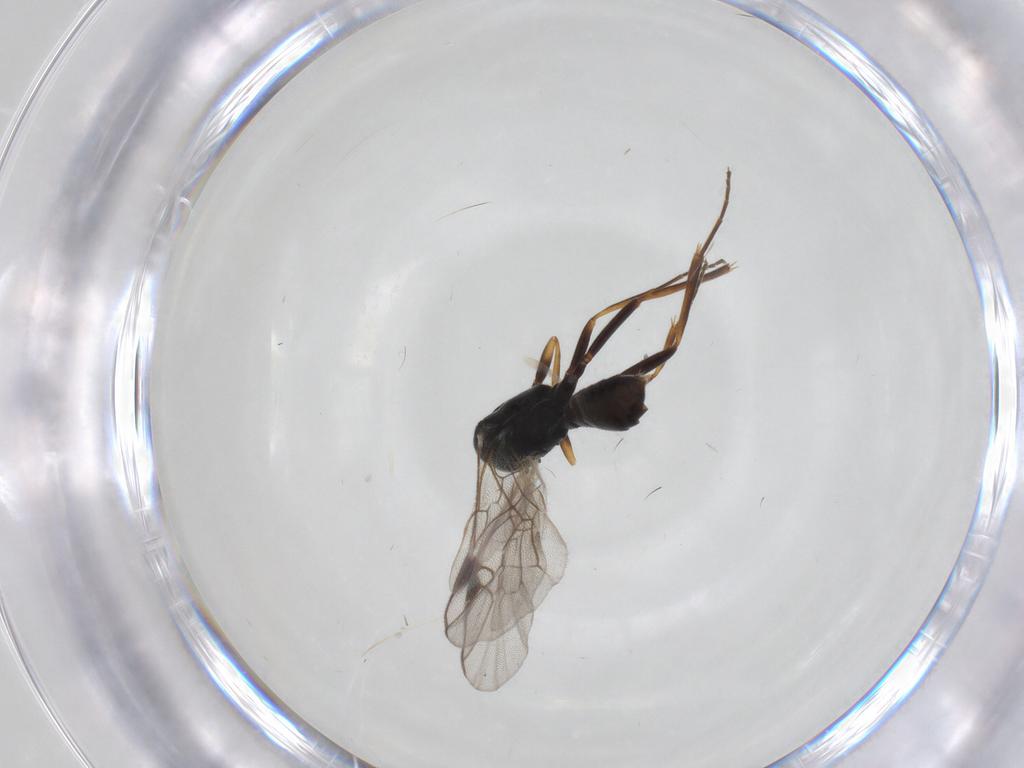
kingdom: Animalia
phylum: Arthropoda
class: Insecta
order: Hymenoptera
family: Ichneumonidae
